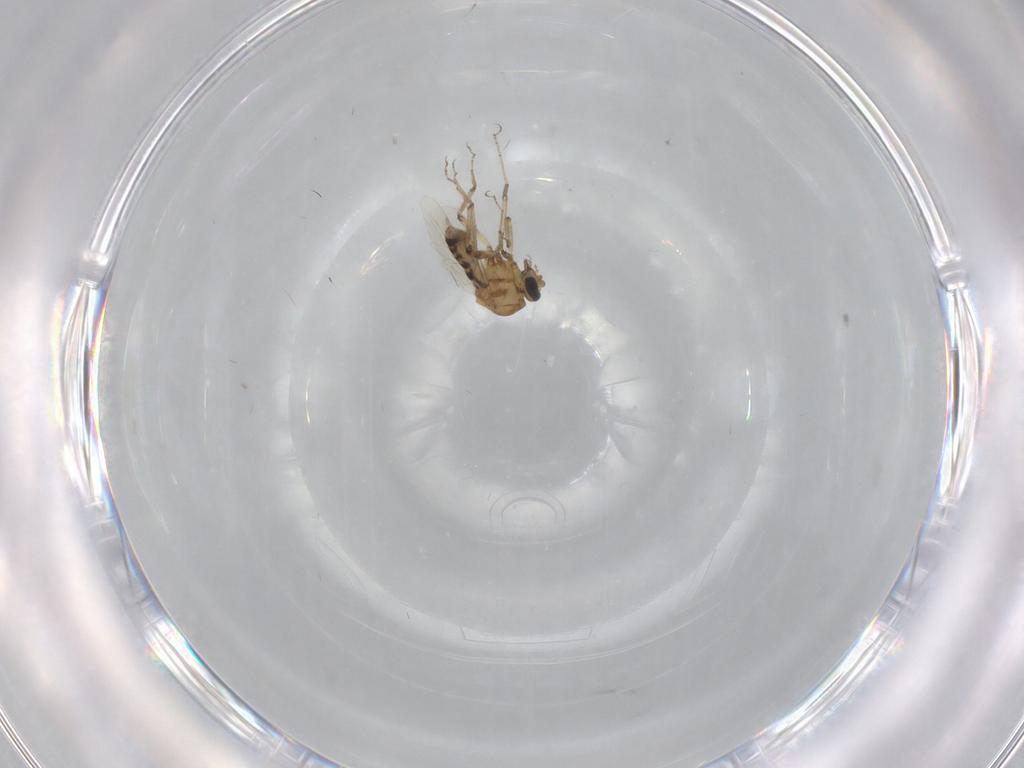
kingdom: Animalia
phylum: Arthropoda
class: Insecta
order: Diptera
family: Ceratopogonidae
